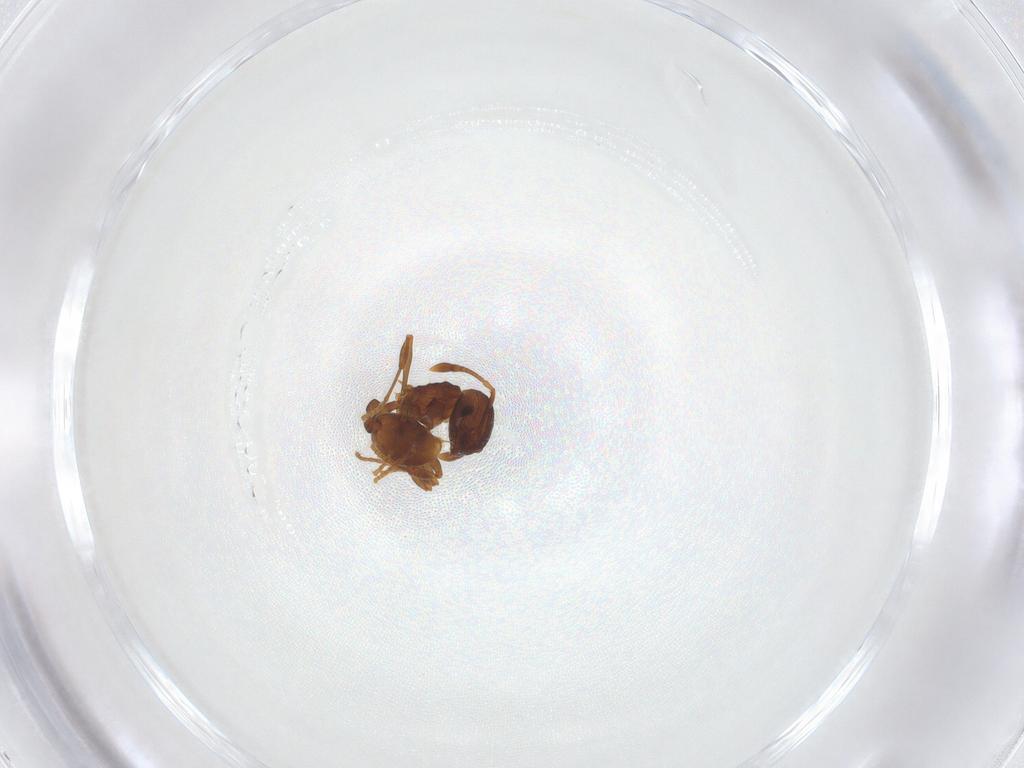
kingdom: Animalia
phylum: Arthropoda
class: Insecta
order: Hymenoptera
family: Formicidae
